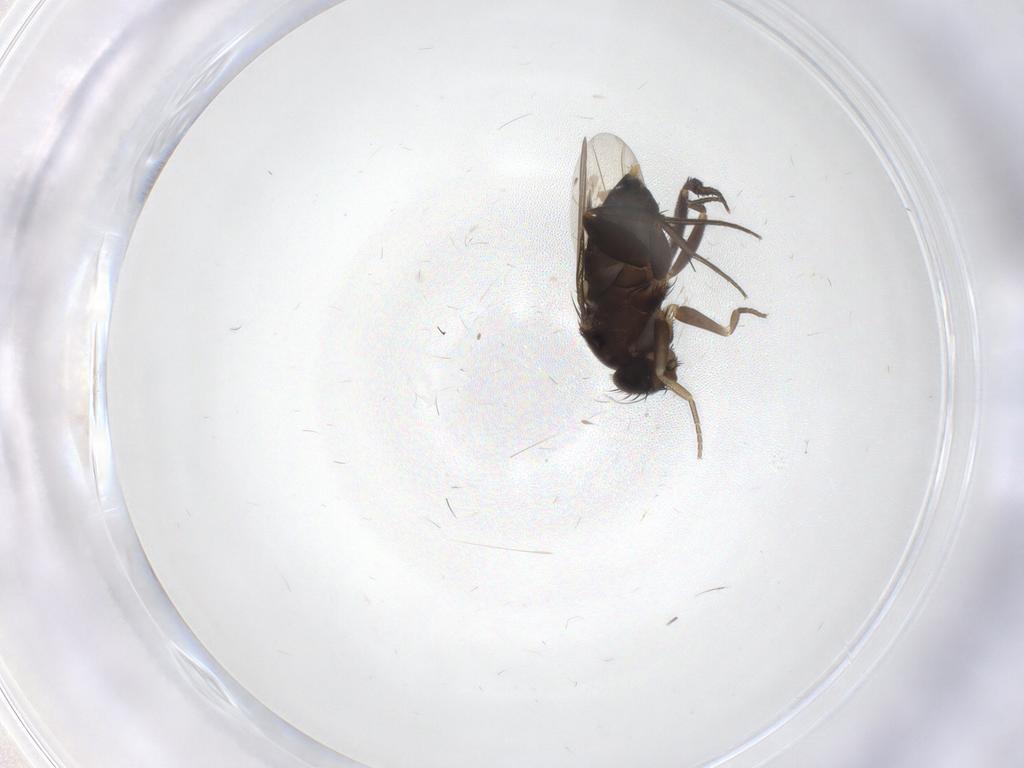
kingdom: Animalia
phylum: Arthropoda
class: Insecta
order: Diptera
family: Phoridae
